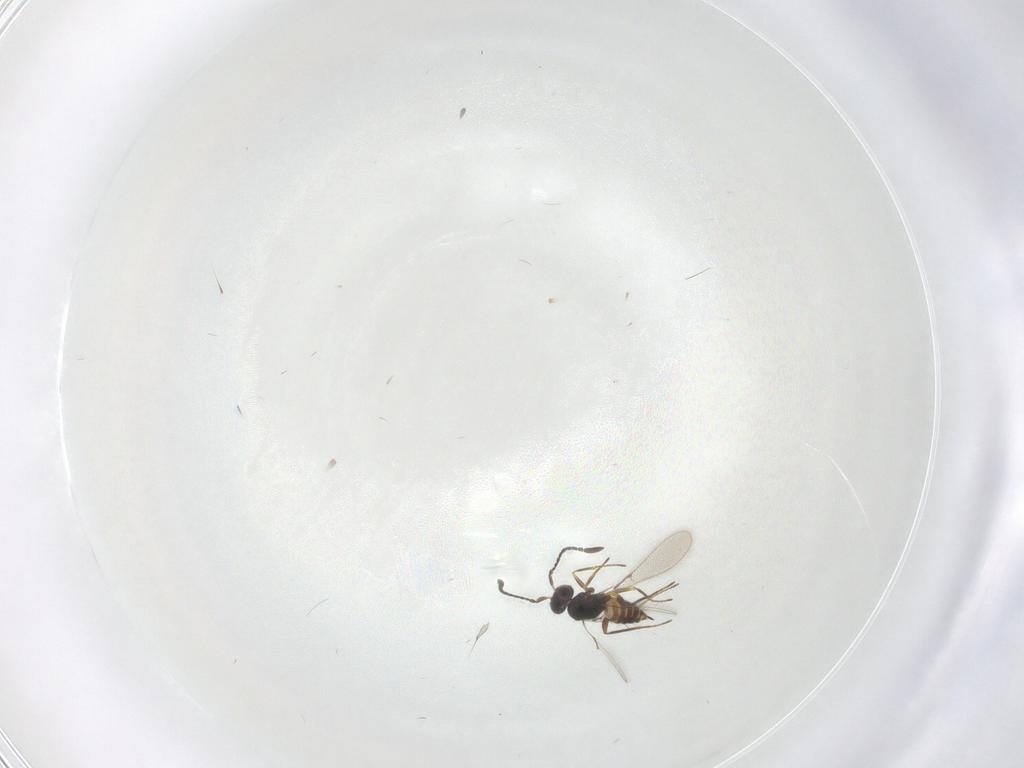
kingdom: Animalia
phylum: Arthropoda
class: Insecta
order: Hymenoptera
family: Mymaridae
